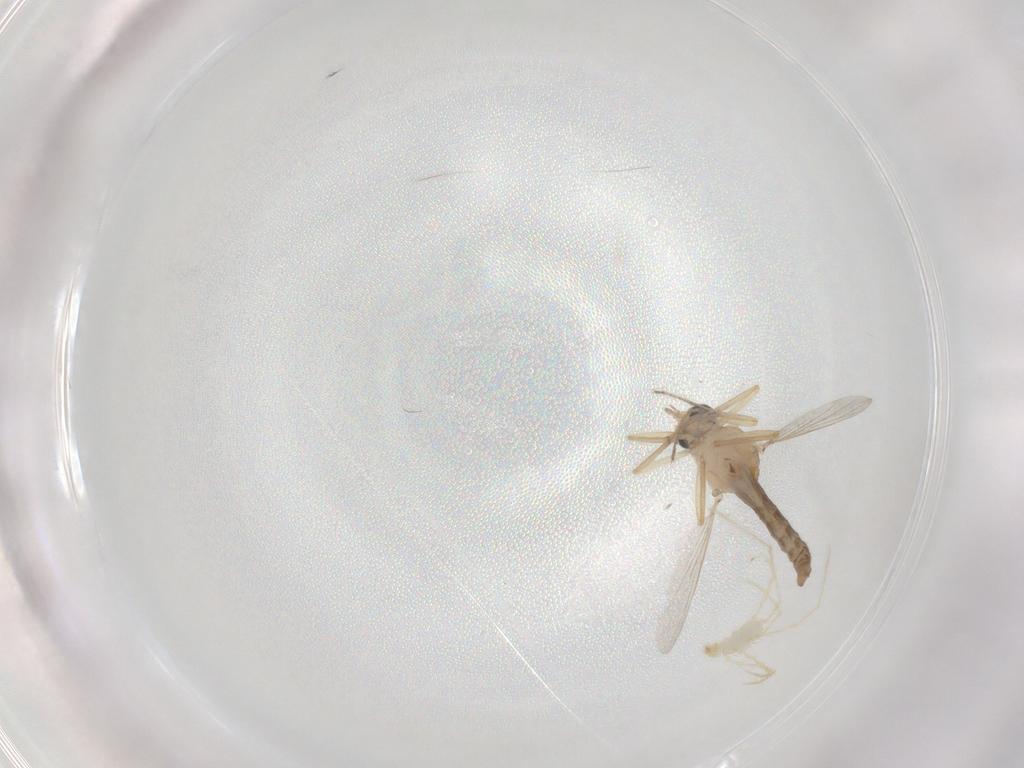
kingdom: Animalia
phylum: Arthropoda
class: Insecta
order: Diptera
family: Ceratopogonidae
